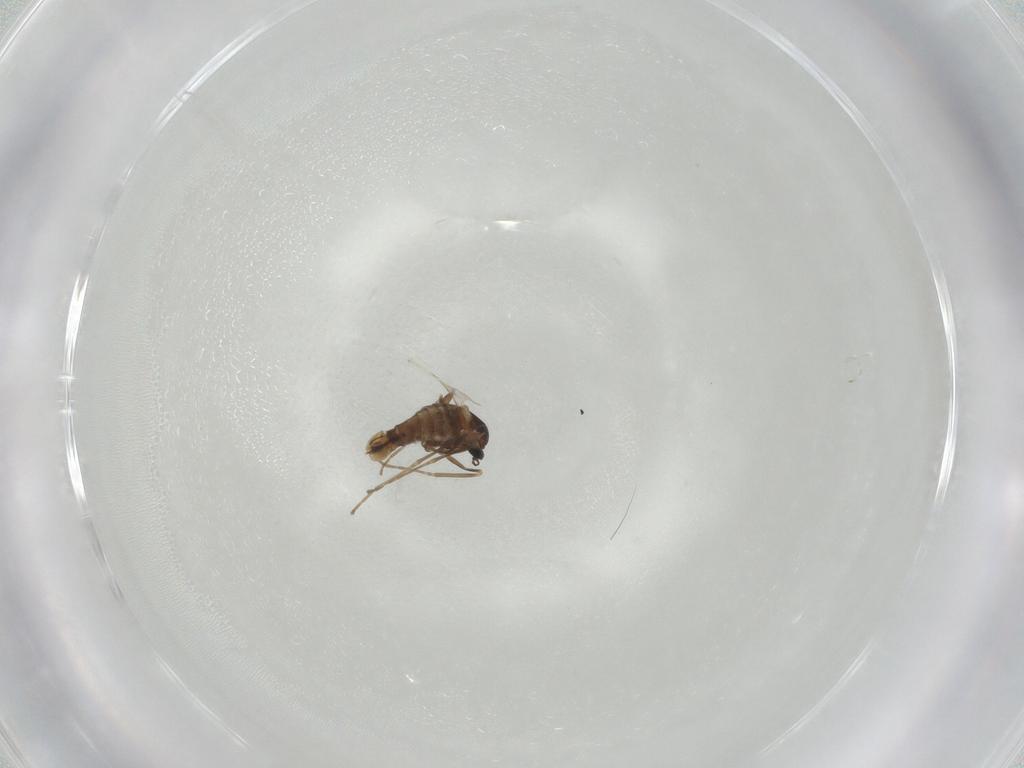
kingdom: Animalia
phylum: Arthropoda
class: Insecta
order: Diptera
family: Cecidomyiidae
